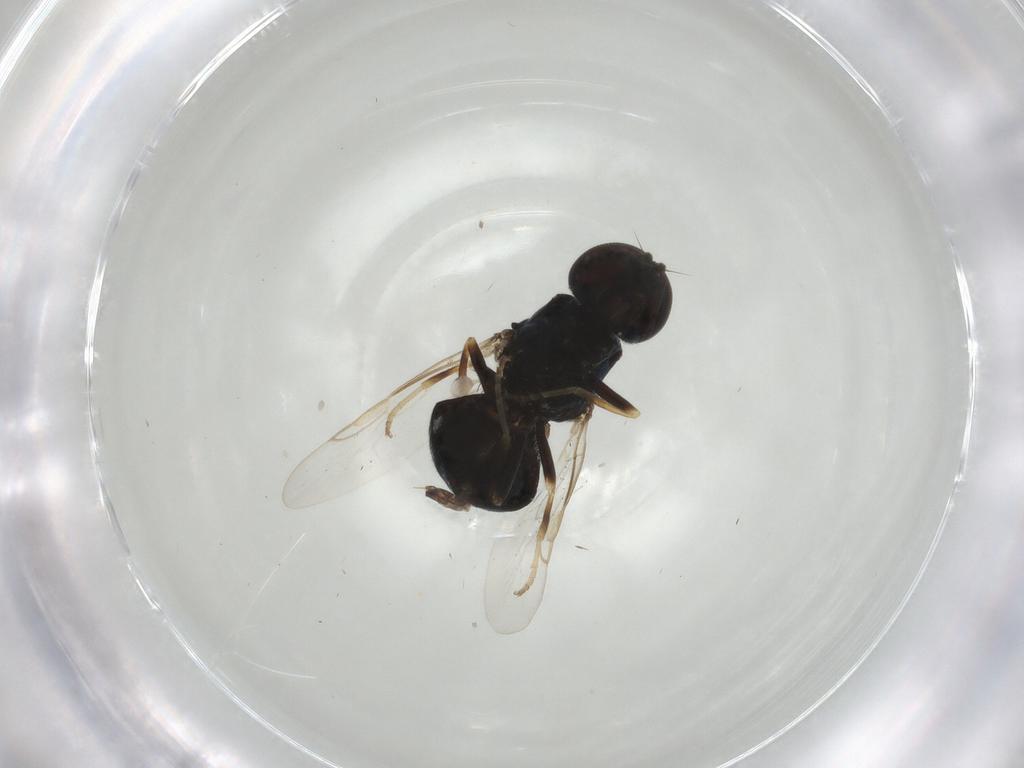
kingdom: Animalia
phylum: Arthropoda
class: Insecta
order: Diptera
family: Stratiomyidae
